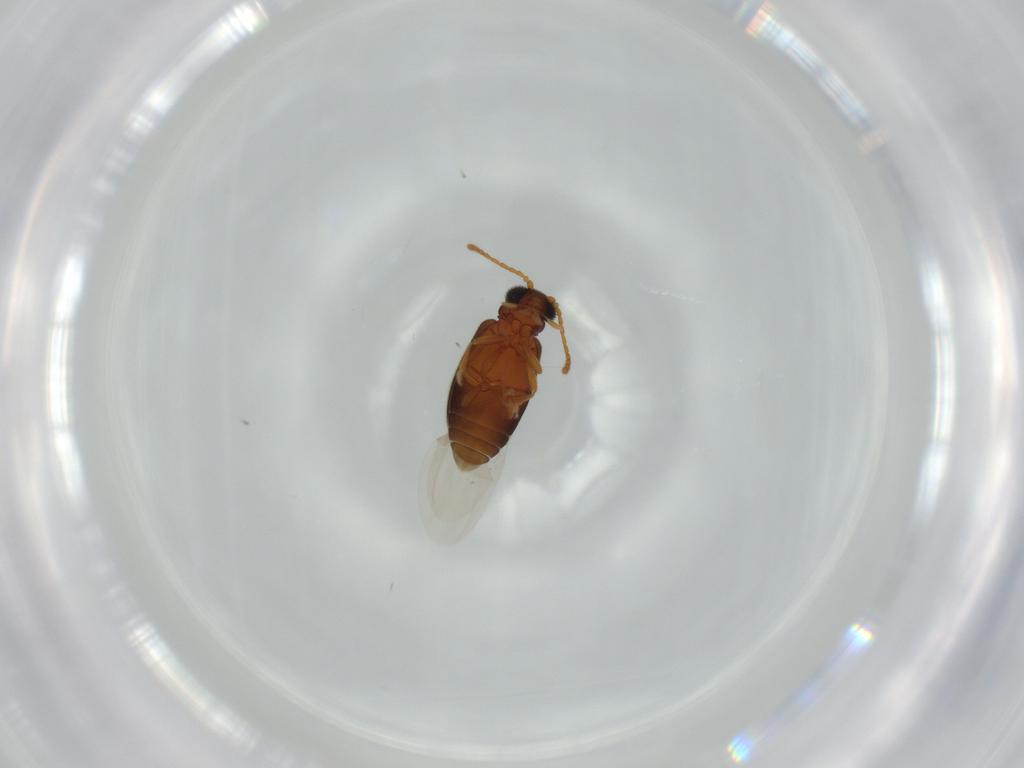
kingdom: Animalia
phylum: Arthropoda
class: Insecta
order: Coleoptera
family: Aderidae
